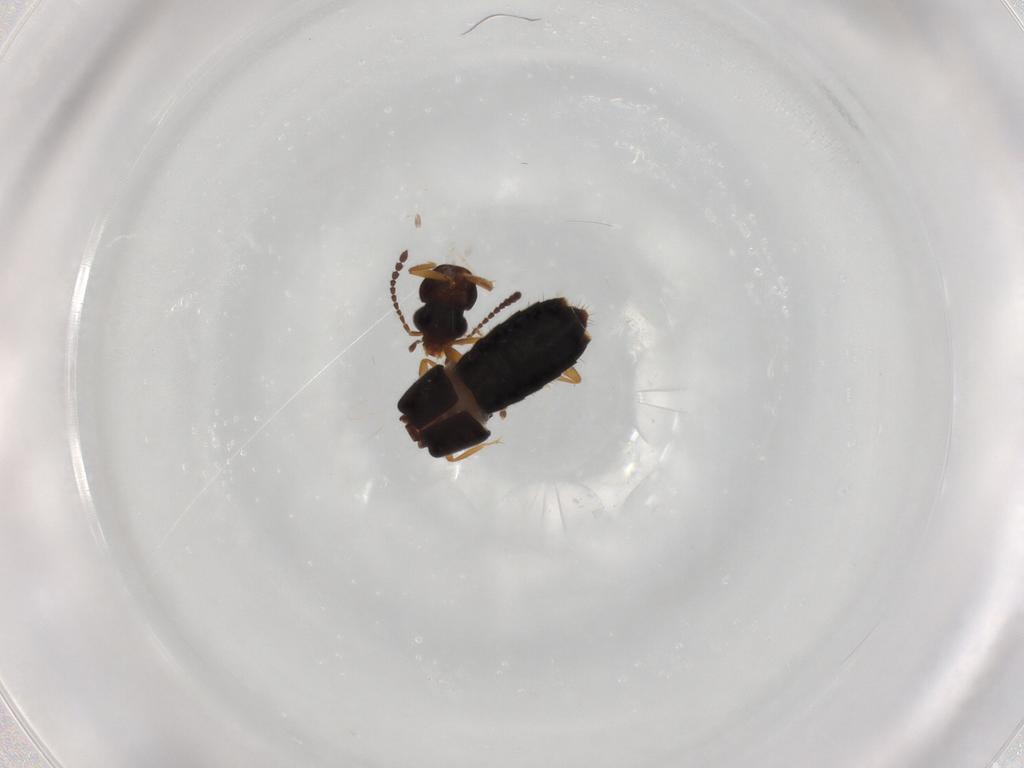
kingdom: Animalia
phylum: Arthropoda
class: Insecta
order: Coleoptera
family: Staphylinidae
